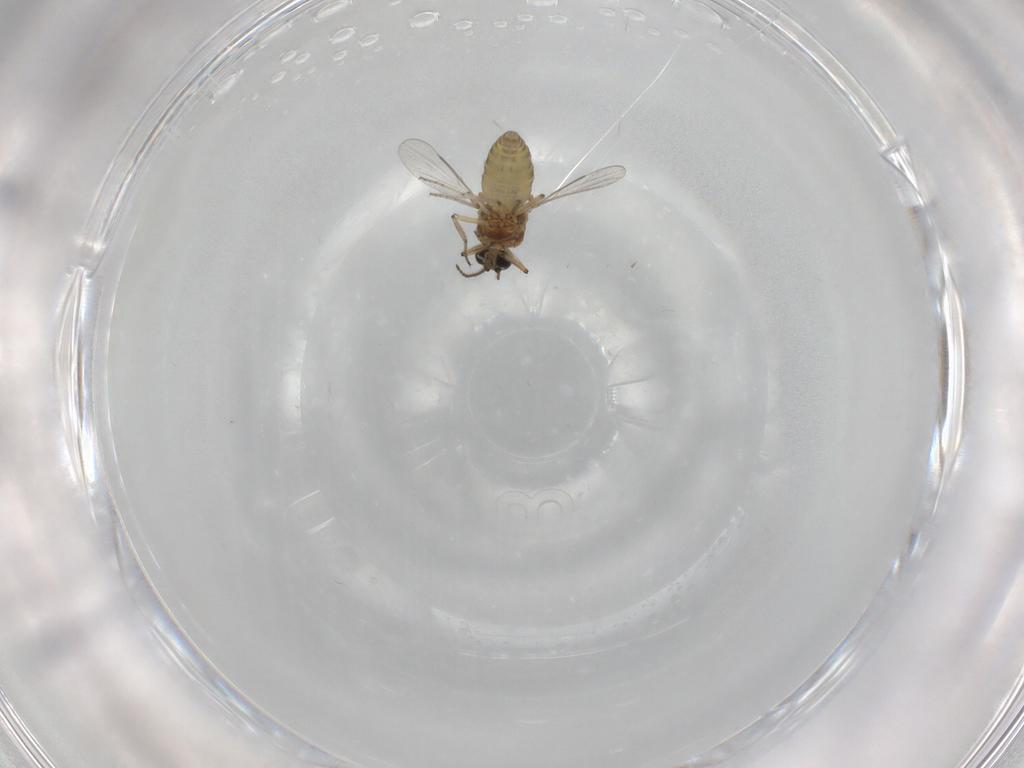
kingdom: Animalia
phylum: Arthropoda
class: Insecta
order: Diptera
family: Ceratopogonidae
